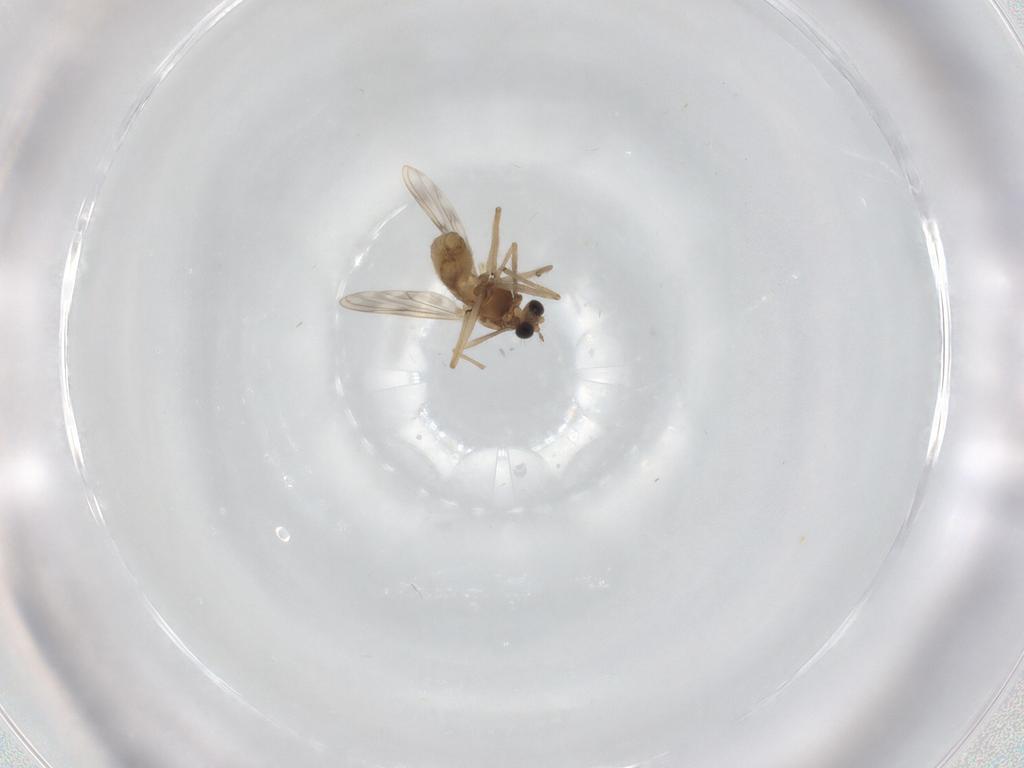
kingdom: Animalia
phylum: Arthropoda
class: Insecta
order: Diptera
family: Chironomidae
